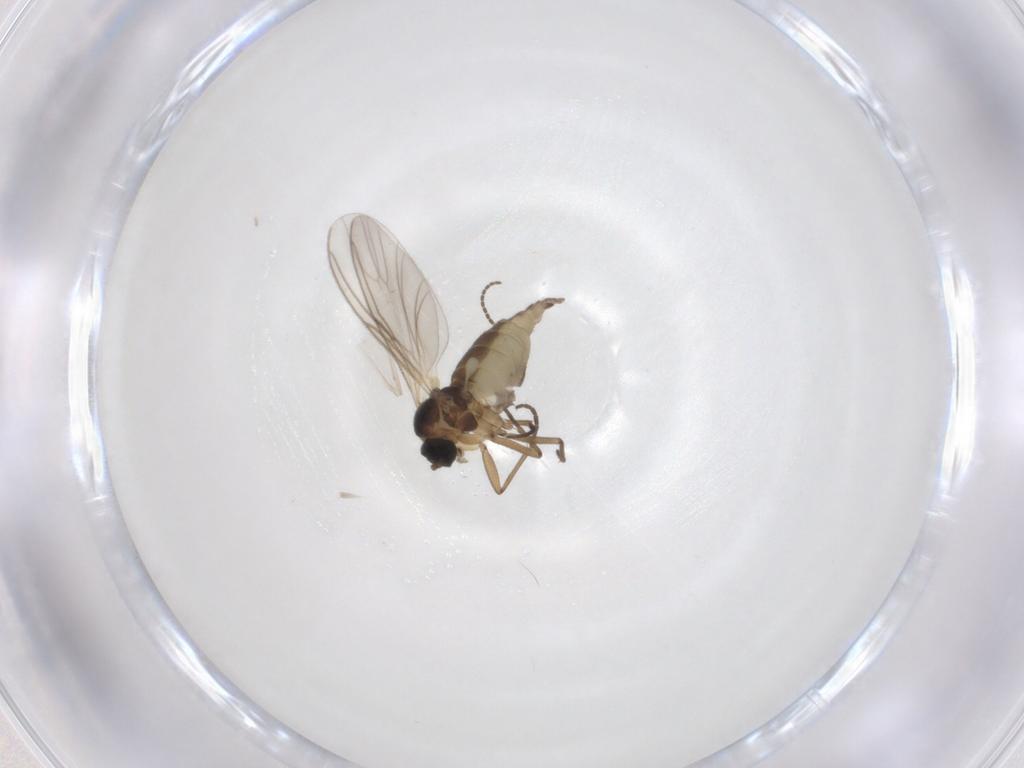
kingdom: Animalia
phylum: Arthropoda
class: Insecta
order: Diptera
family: Cecidomyiidae
